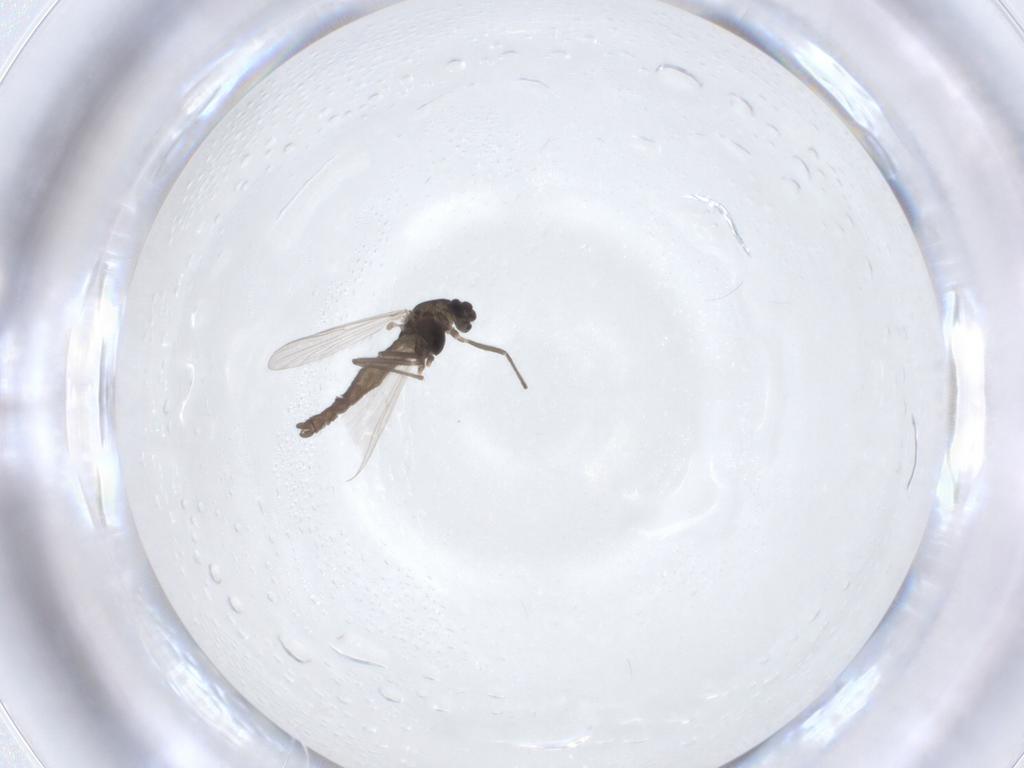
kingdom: Animalia
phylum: Arthropoda
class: Insecta
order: Diptera
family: Chironomidae
